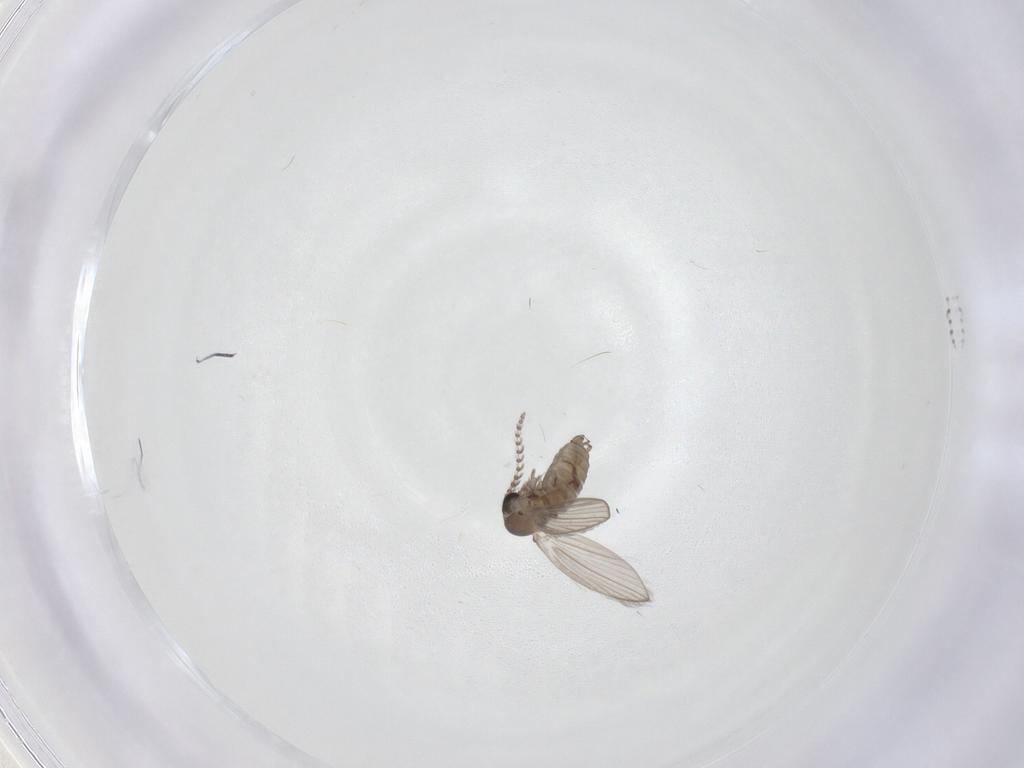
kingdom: Animalia
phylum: Arthropoda
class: Insecta
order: Diptera
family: Psychodidae
